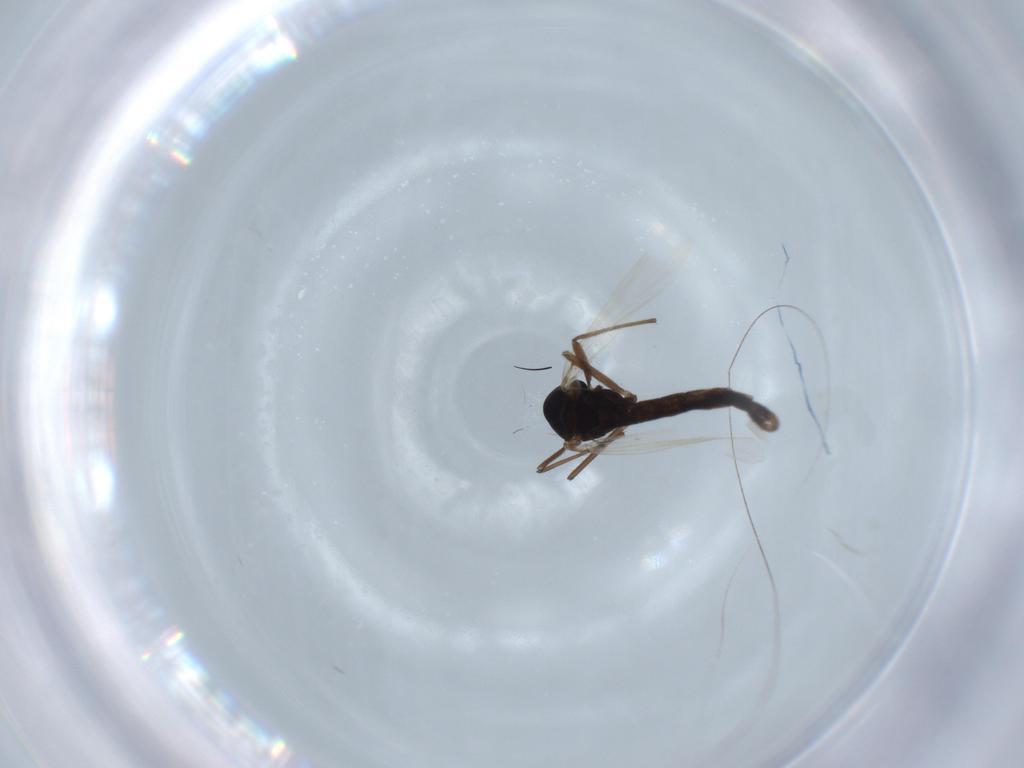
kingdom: Animalia
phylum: Arthropoda
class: Insecta
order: Diptera
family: Chironomidae
